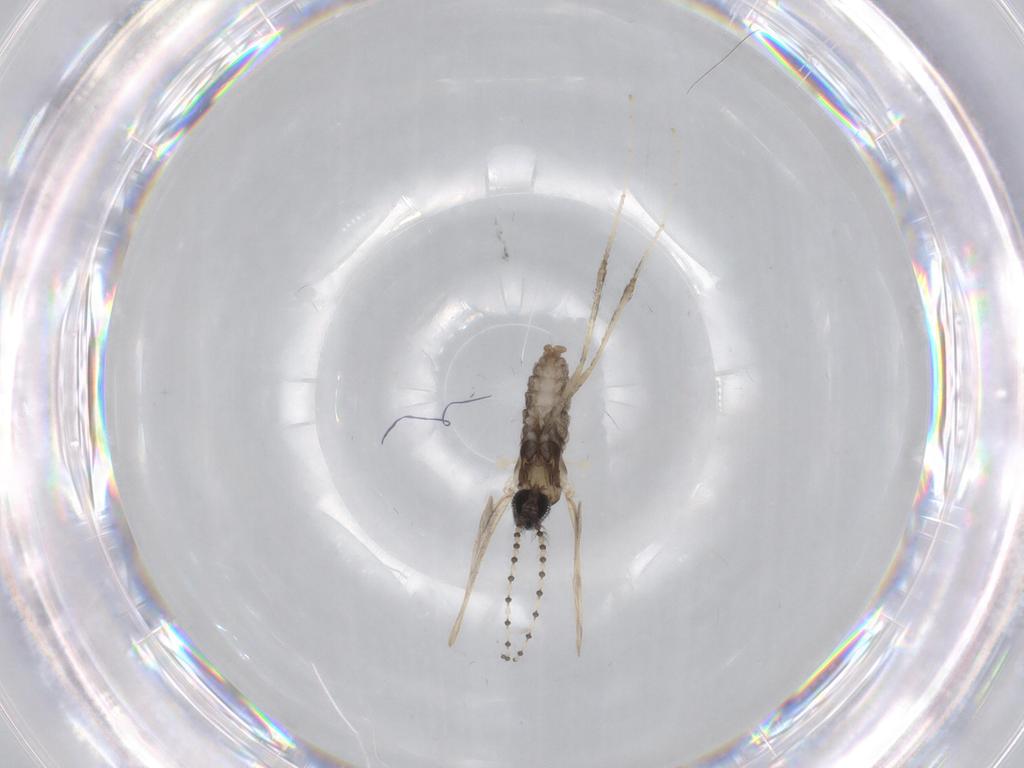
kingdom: Animalia
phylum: Arthropoda
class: Insecta
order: Diptera
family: Cecidomyiidae
